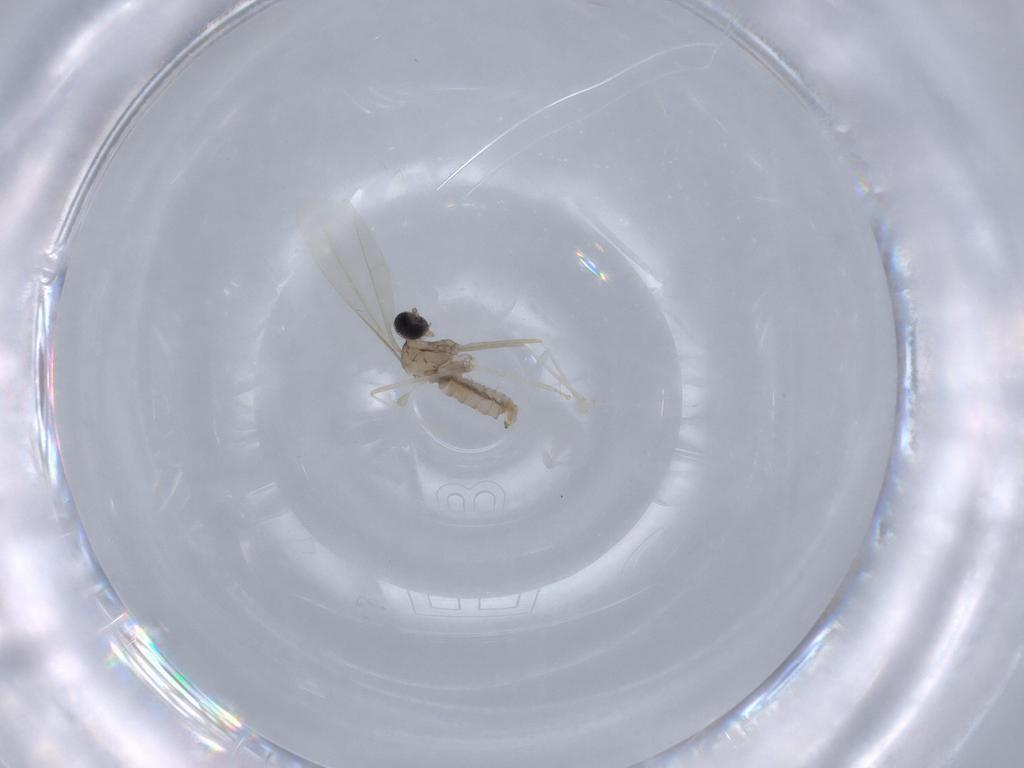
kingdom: Animalia
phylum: Arthropoda
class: Insecta
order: Diptera
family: Cecidomyiidae
